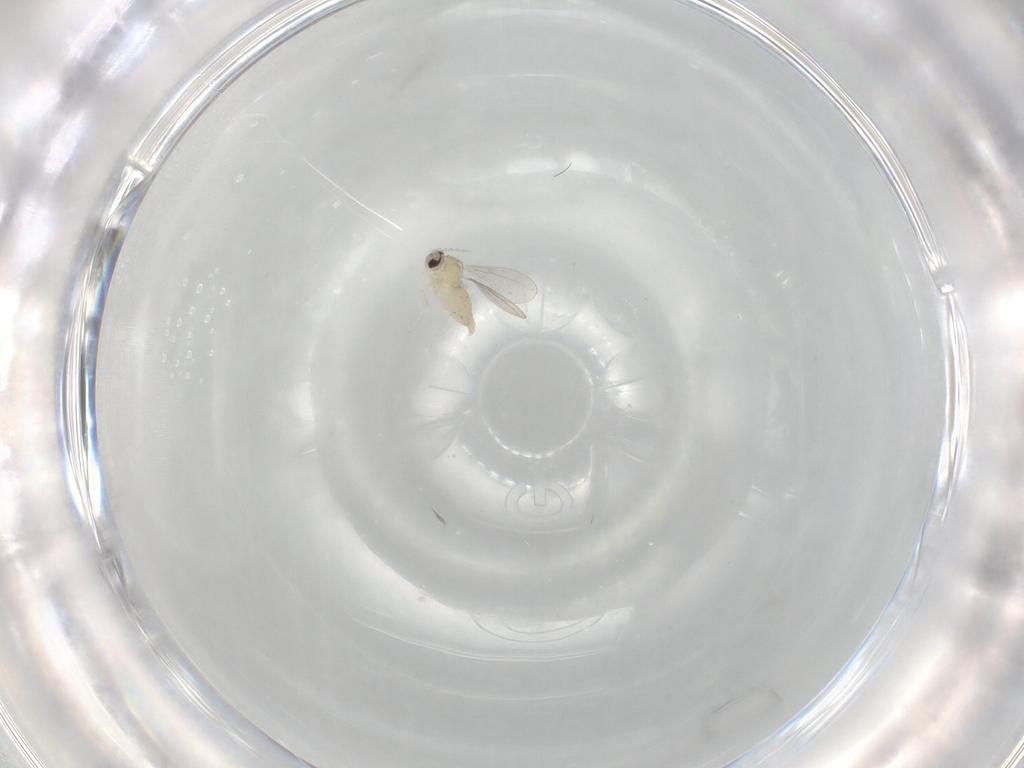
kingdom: Animalia
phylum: Arthropoda
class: Insecta
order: Diptera
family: Cecidomyiidae
